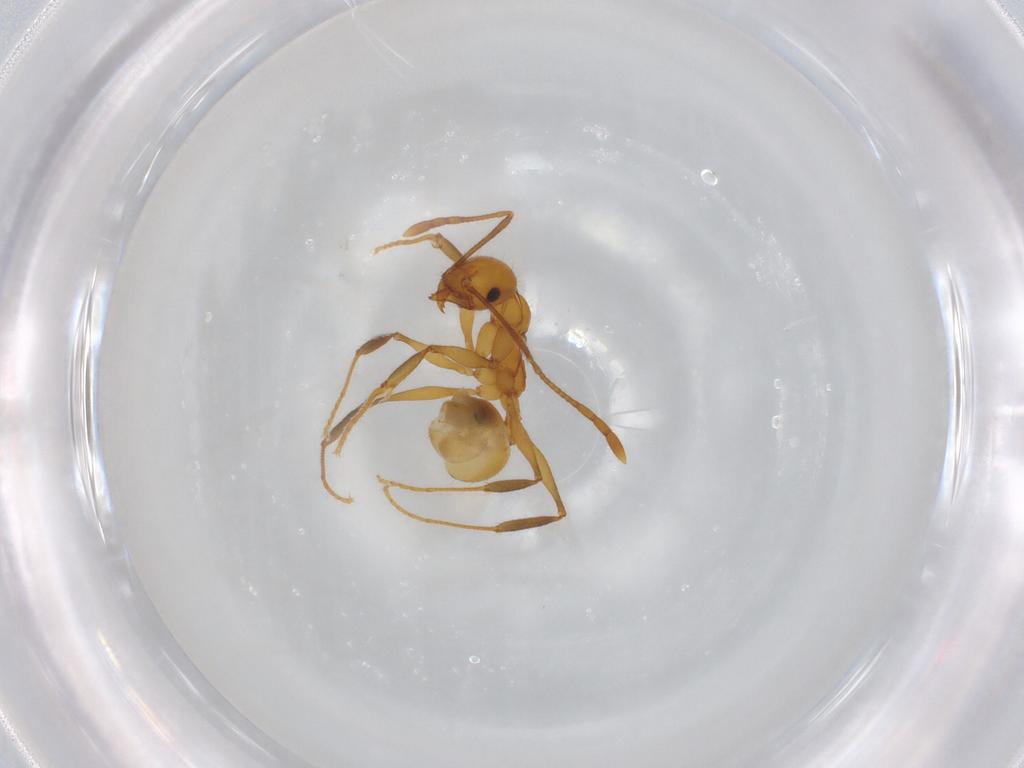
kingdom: Animalia
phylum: Arthropoda
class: Insecta
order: Hymenoptera
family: Formicidae
